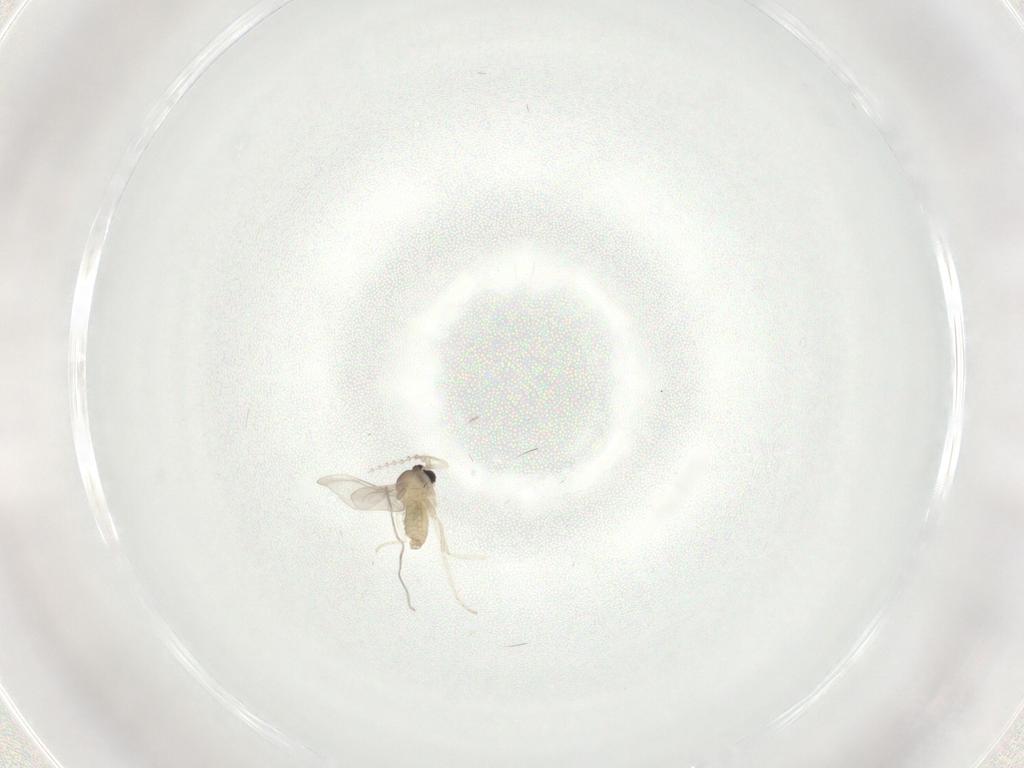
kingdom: Animalia
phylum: Arthropoda
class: Insecta
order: Diptera
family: Cecidomyiidae
